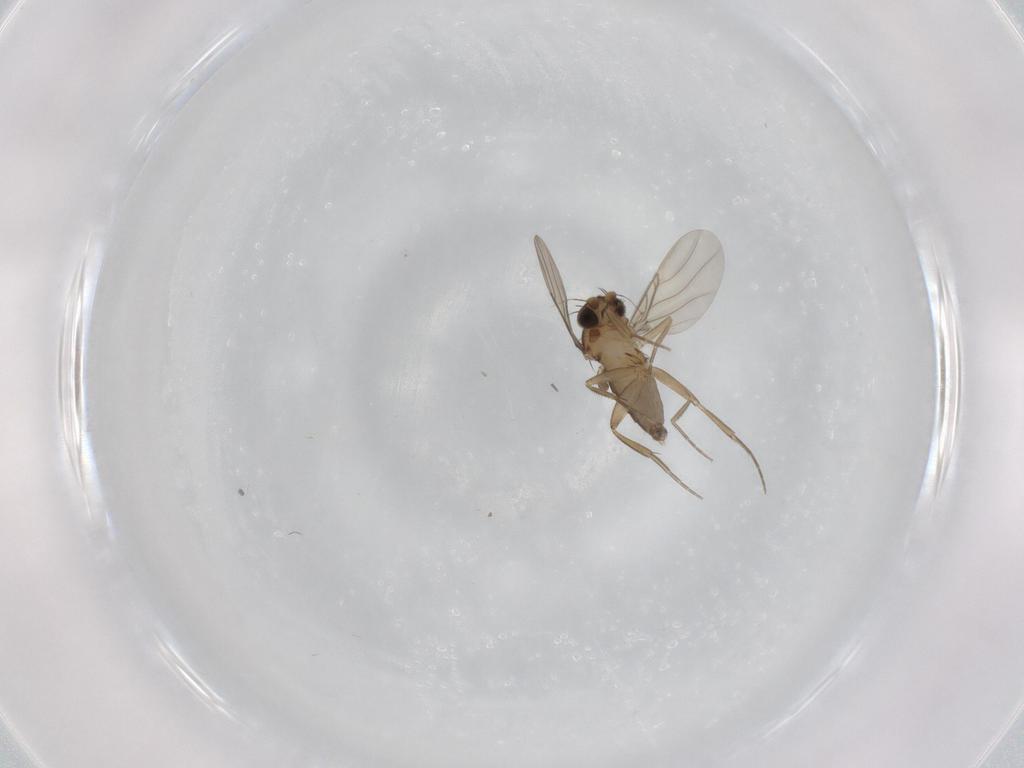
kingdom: Animalia
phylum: Arthropoda
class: Insecta
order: Diptera
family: Phoridae
